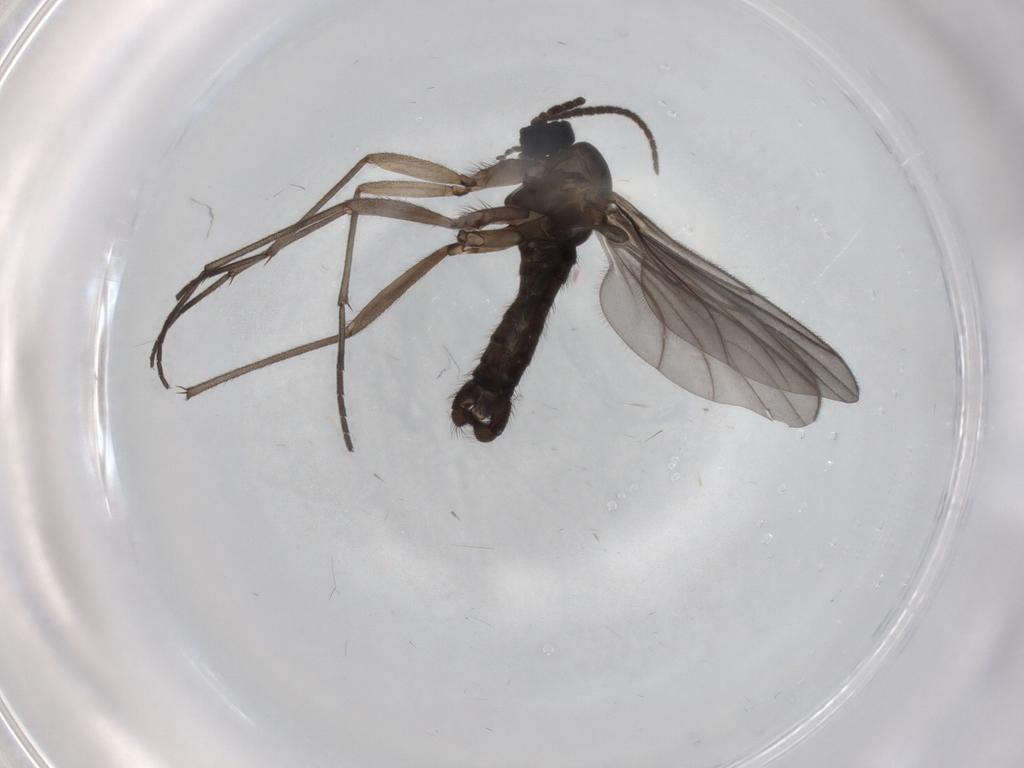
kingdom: Animalia
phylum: Arthropoda
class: Insecta
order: Diptera
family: Sciaridae
